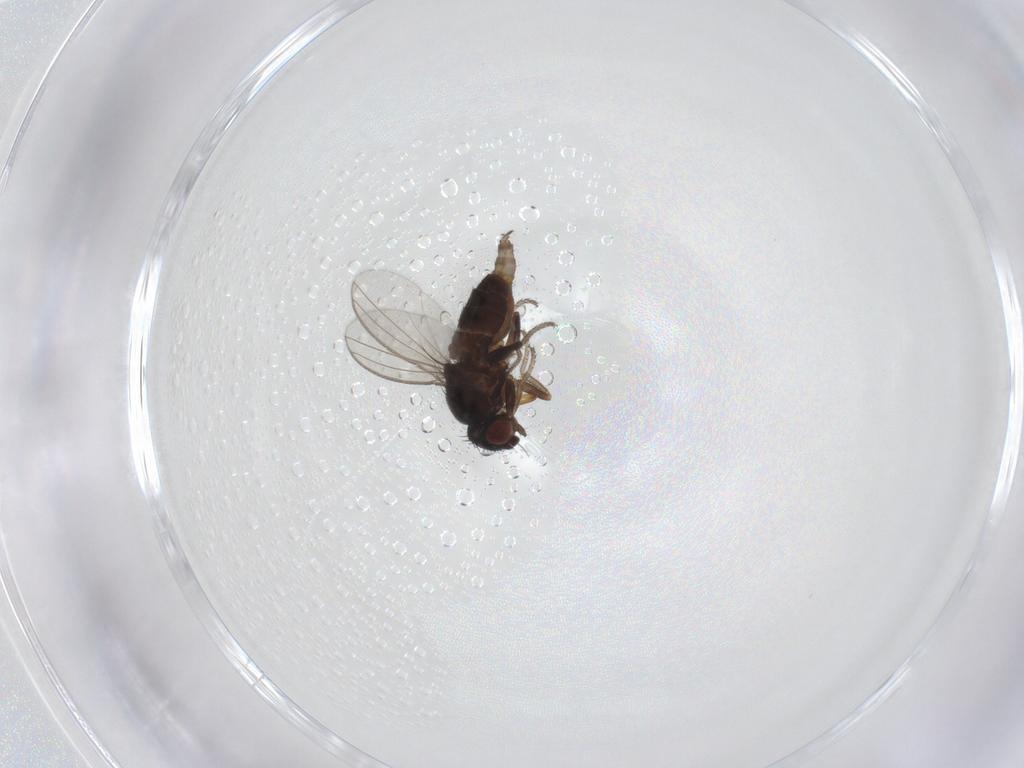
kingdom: Animalia
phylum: Arthropoda
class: Insecta
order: Diptera
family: Milichiidae
